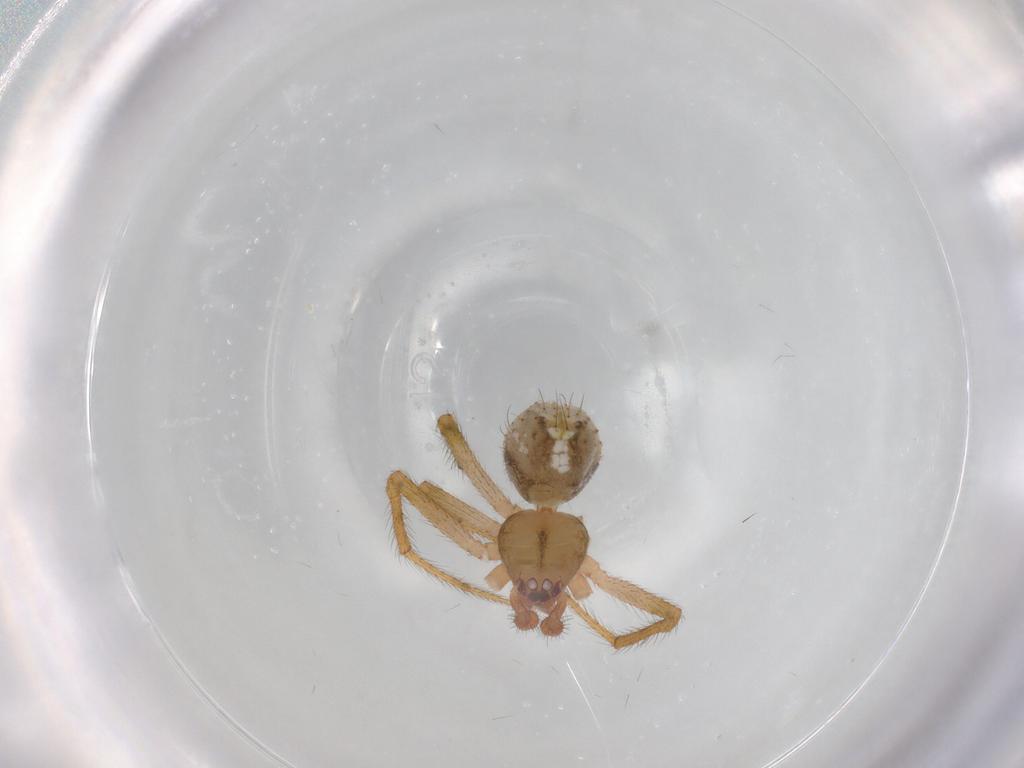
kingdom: Animalia
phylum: Arthropoda
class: Arachnida
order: Araneae
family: Theridiidae
